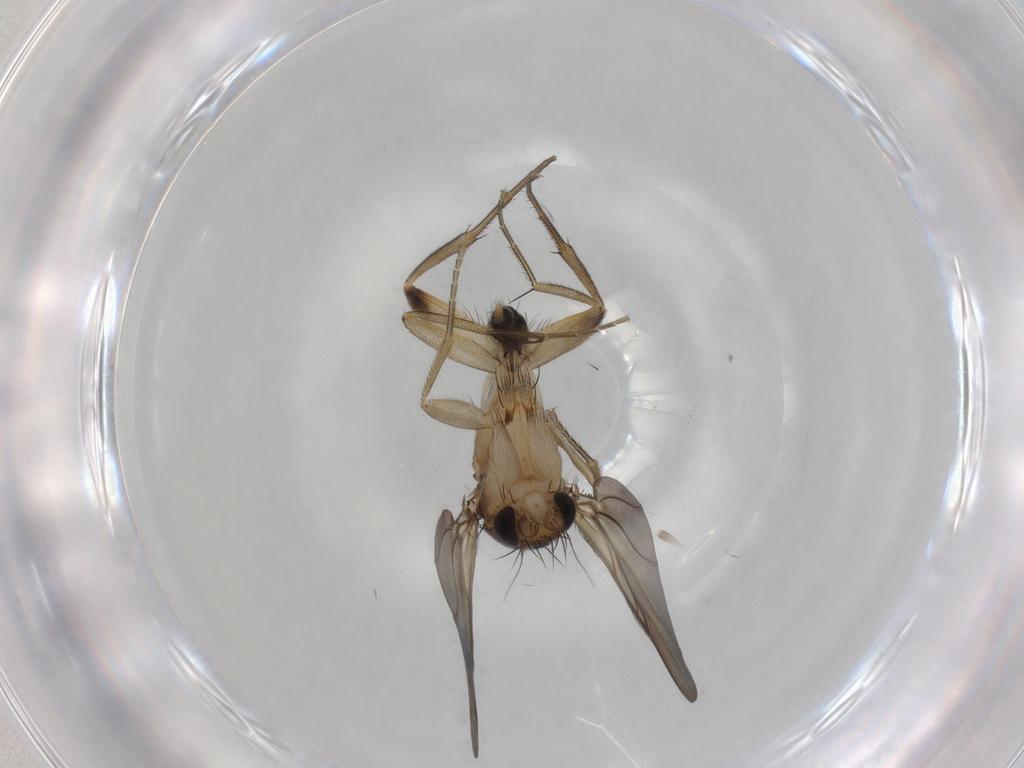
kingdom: Animalia
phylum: Arthropoda
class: Insecta
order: Diptera
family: Phoridae
